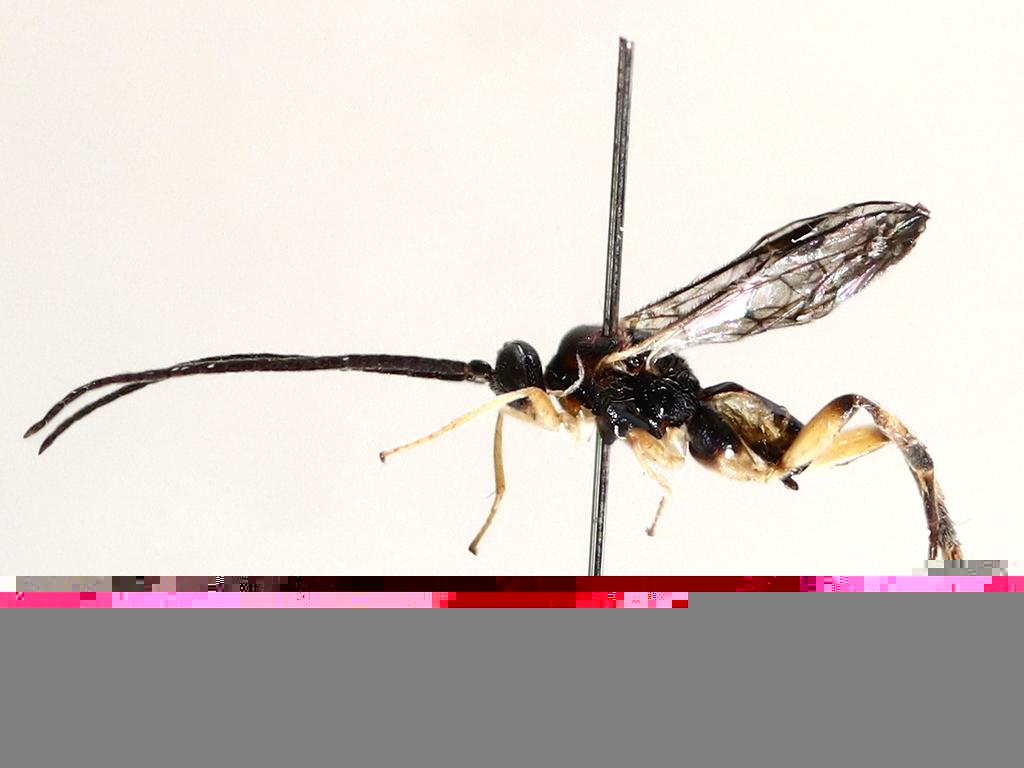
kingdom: Animalia
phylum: Arthropoda
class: Insecta
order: Diptera
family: Limoniidae
